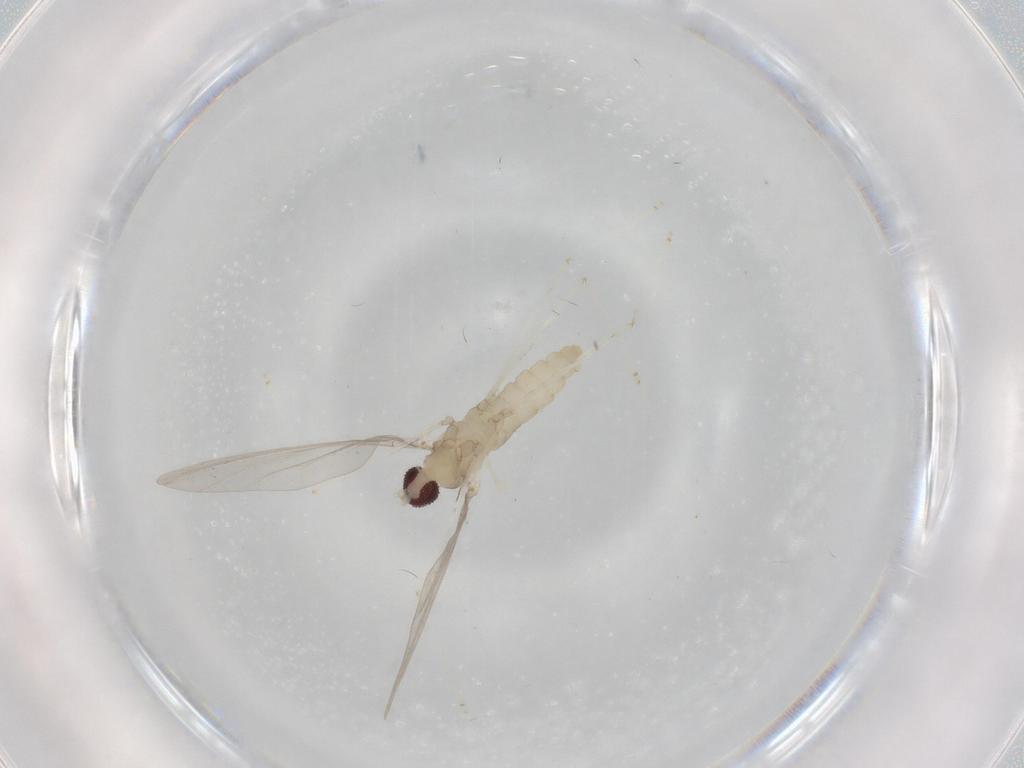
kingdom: Animalia
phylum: Arthropoda
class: Insecta
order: Diptera
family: Cecidomyiidae
